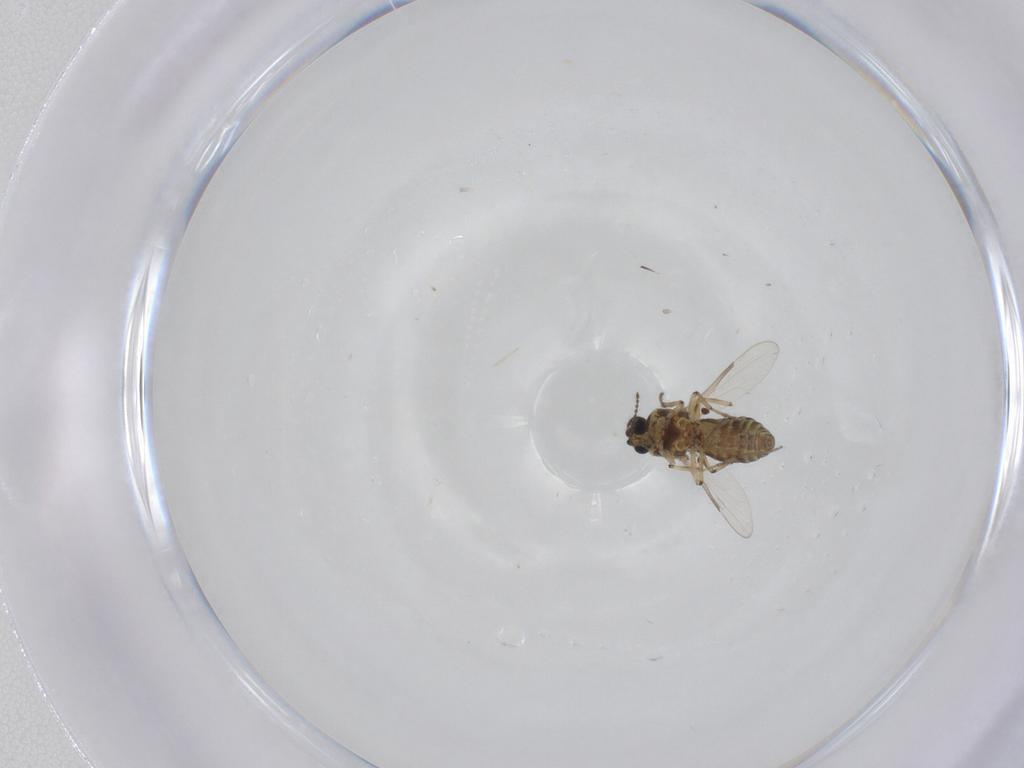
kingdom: Animalia
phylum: Arthropoda
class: Insecta
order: Diptera
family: Ceratopogonidae
